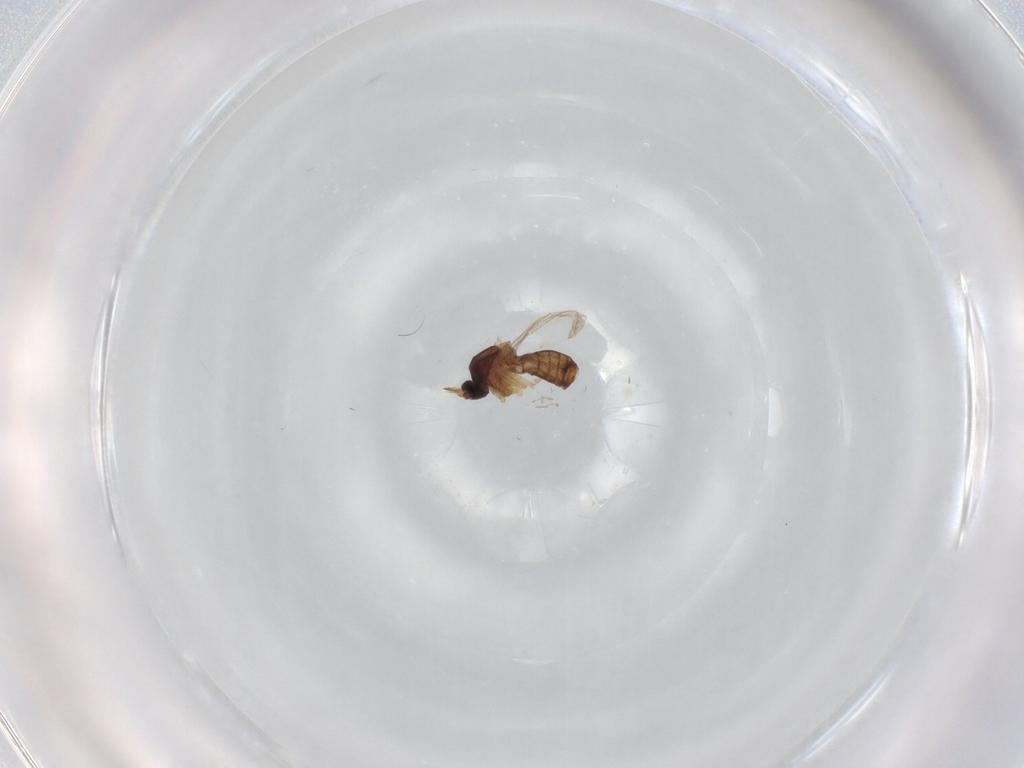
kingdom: Animalia
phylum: Arthropoda
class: Insecta
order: Diptera
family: Ceratopogonidae
